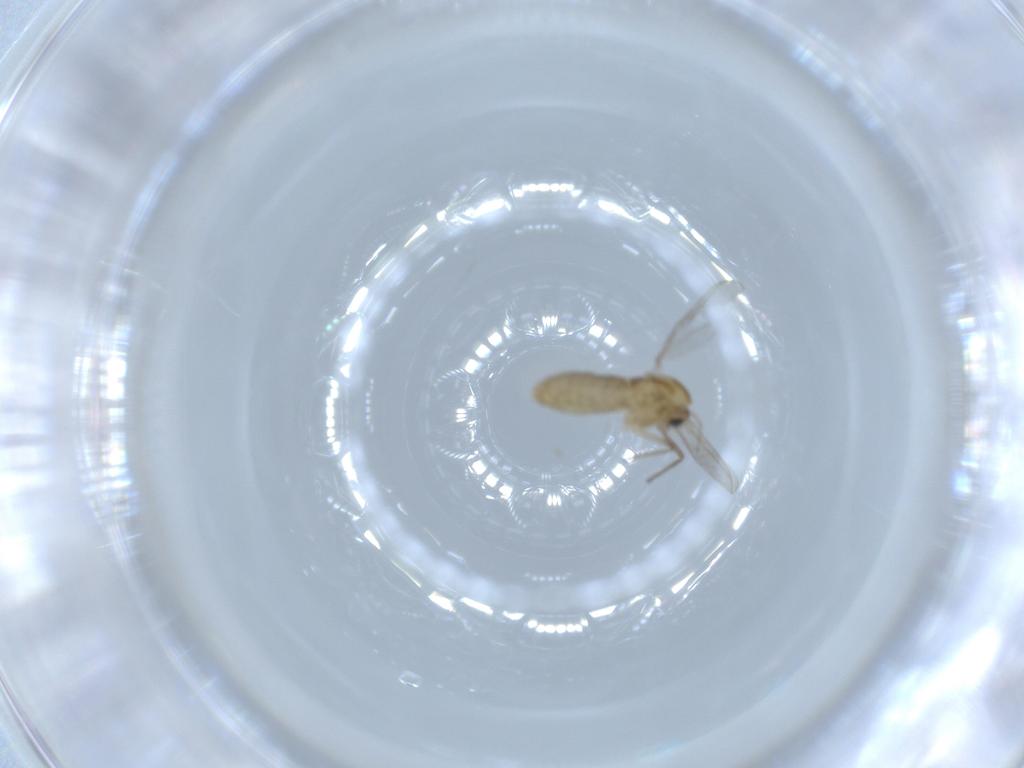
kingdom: Animalia
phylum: Arthropoda
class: Insecta
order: Diptera
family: Chironomidae
